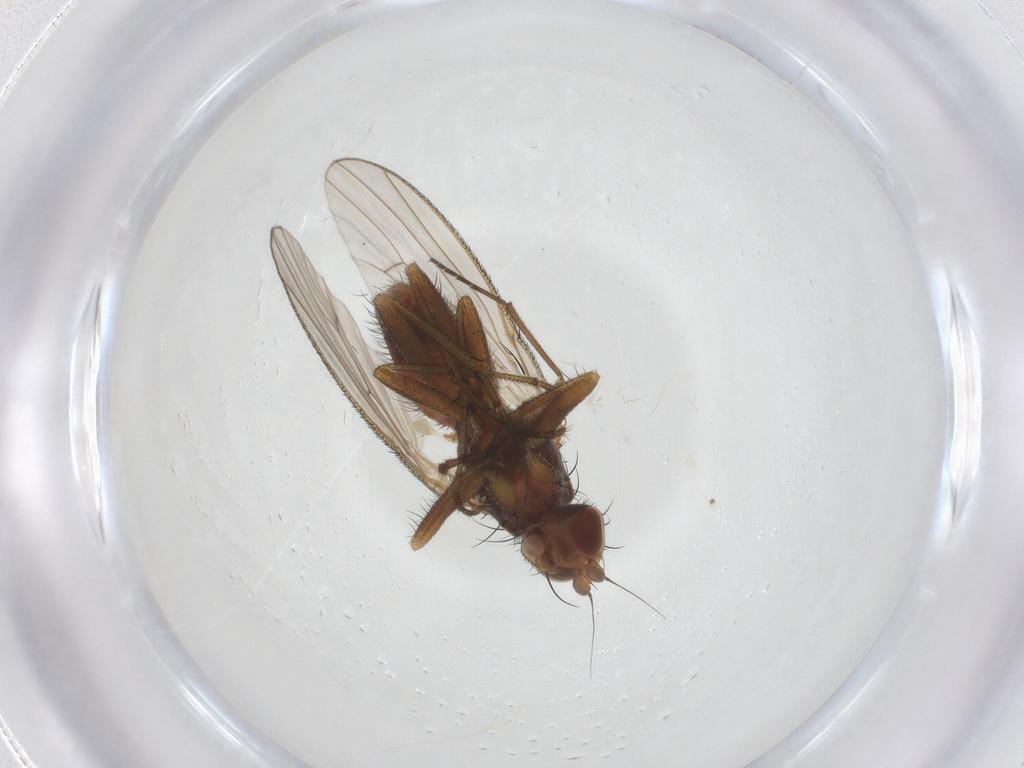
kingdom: Animalia
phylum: Arthropoda
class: Insecta
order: Diptera
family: Heleomyzidae
